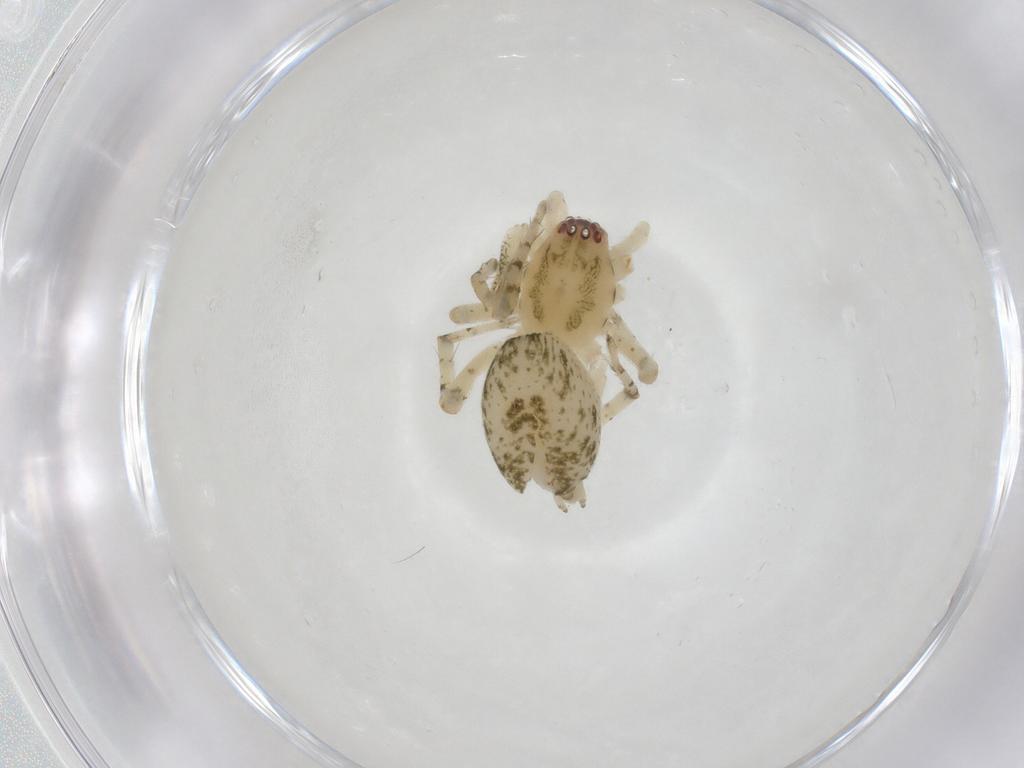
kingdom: Animalia
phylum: Arthropoda
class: Arachnida
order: Araneae
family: Anyphaenidae
